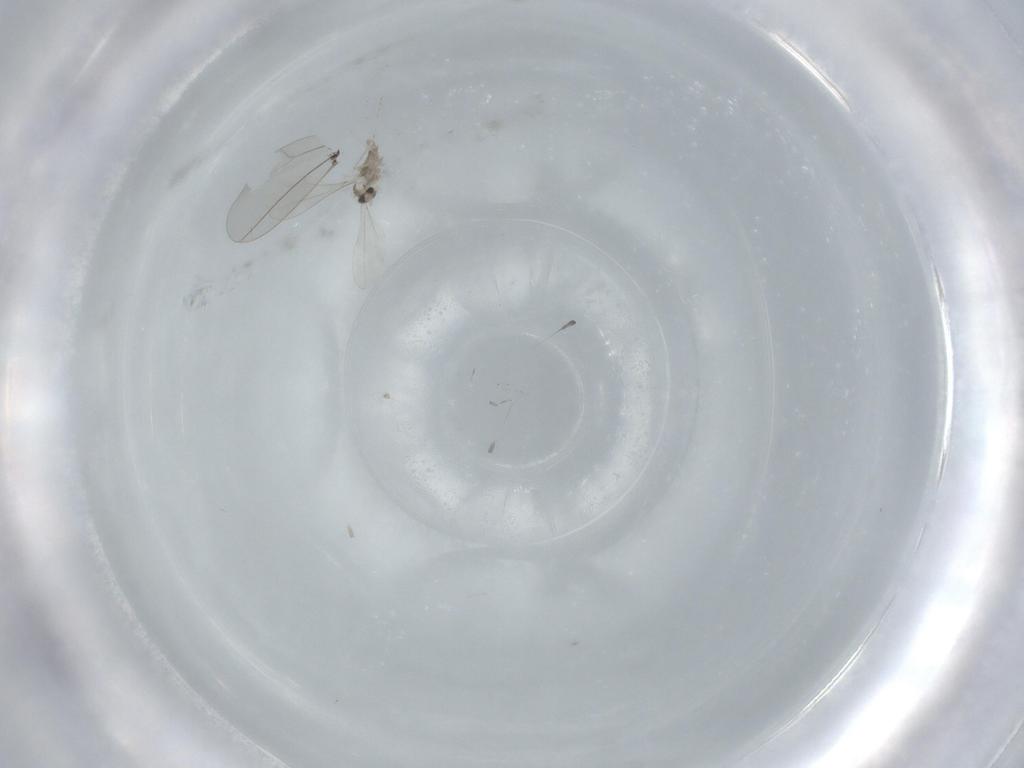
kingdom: Animalia
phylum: Arthropoda
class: Insecta
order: Diptera
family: Cecidomyiidae
